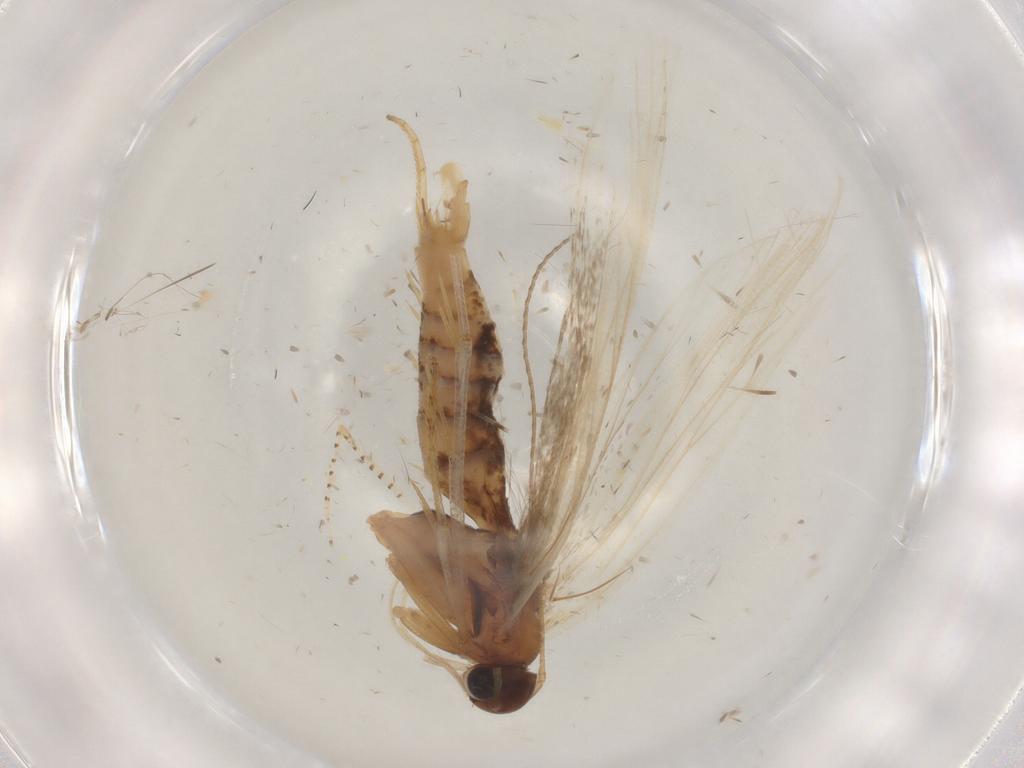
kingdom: Animalia
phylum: Arthropoda
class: Insecta
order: Lepidoptera
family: Gelechiidae
